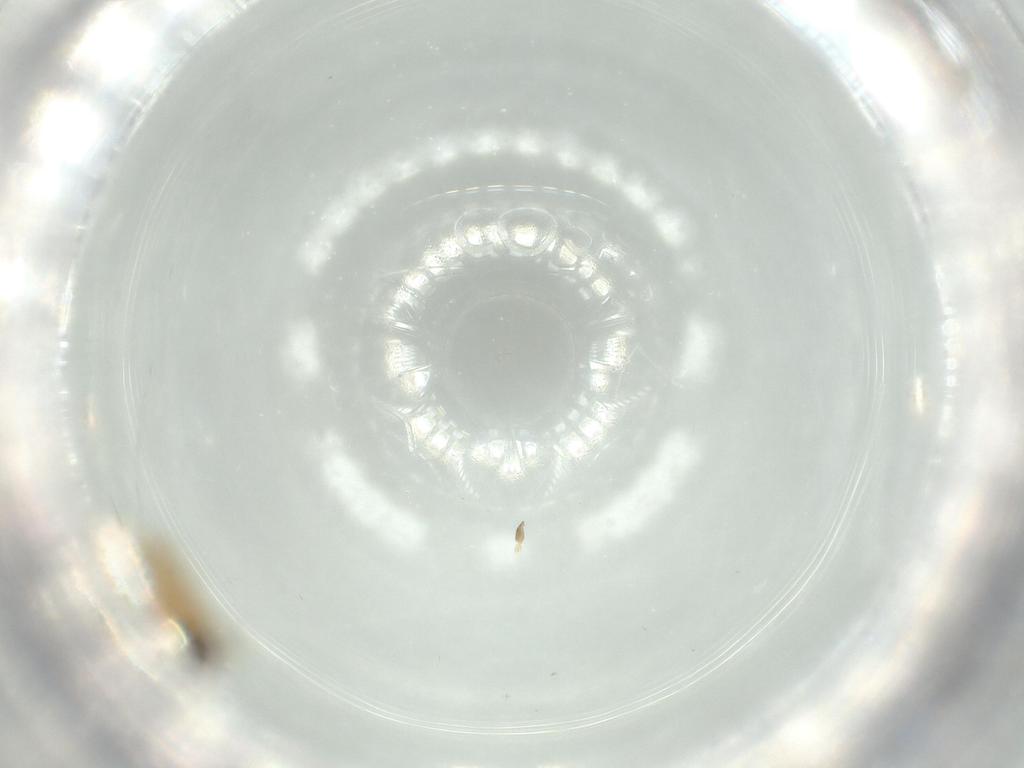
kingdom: Animalia
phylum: Arthropoda
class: Insecta
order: Diptera
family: Cecidomyiidae
